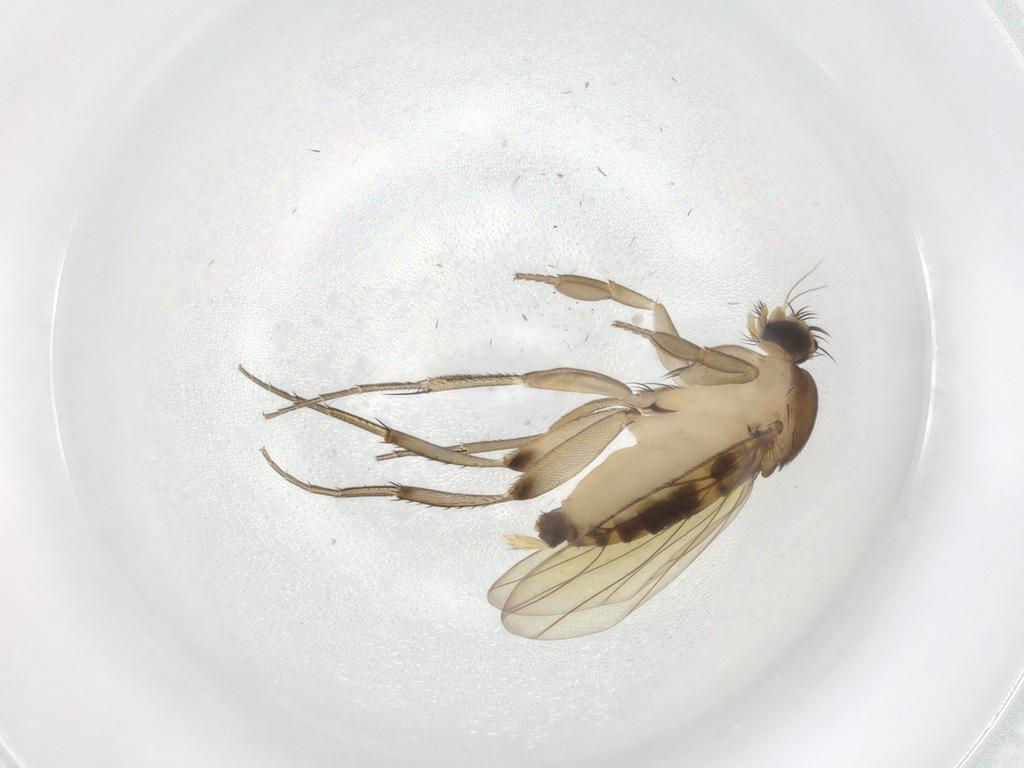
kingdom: Animalia
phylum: Arthropoda
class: Insecta
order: Diptera
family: Phoridae
